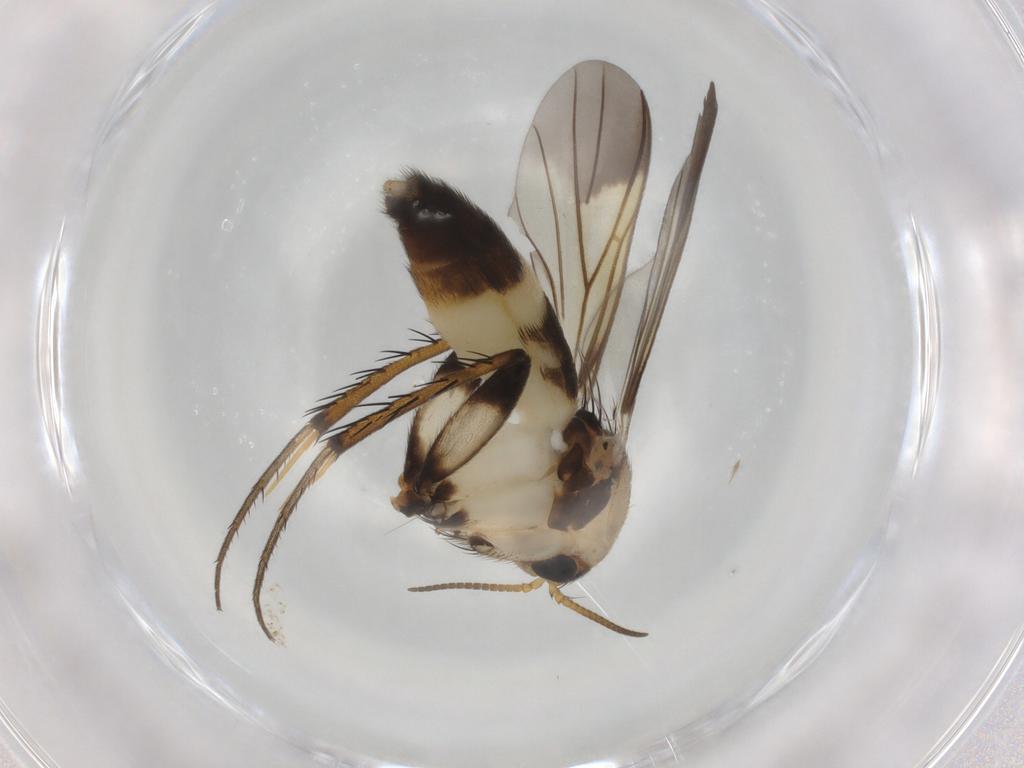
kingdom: Animalia
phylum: Arthropoda
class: Insecta
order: Diptera
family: Mycetophilidae
